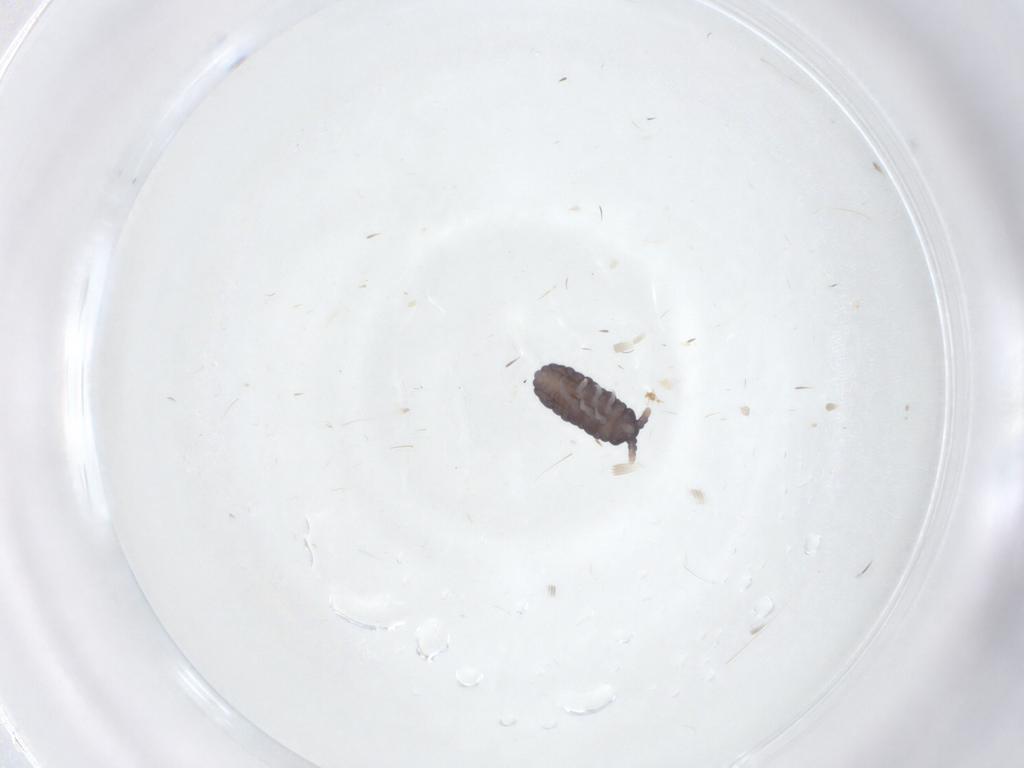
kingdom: Animalia
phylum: Arthropoda
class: Collembola
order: Poduromorpha
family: Neanuridae
